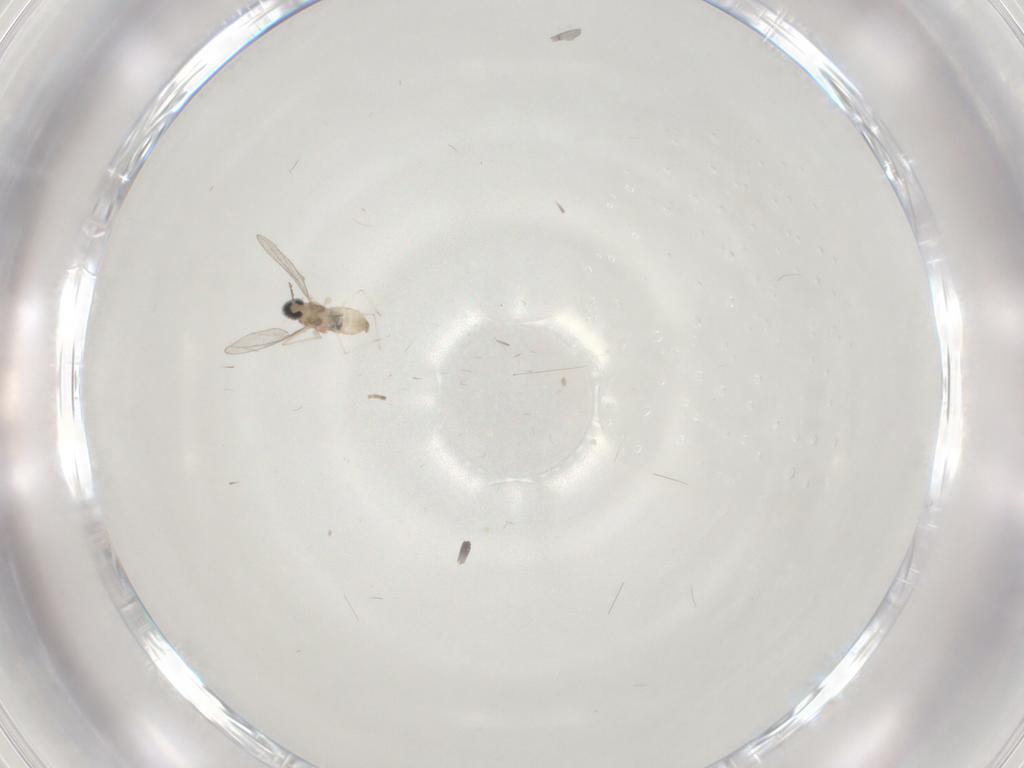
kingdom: Animalia
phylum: Arthropoda
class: Insecta
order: Diptera
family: Phoridae
